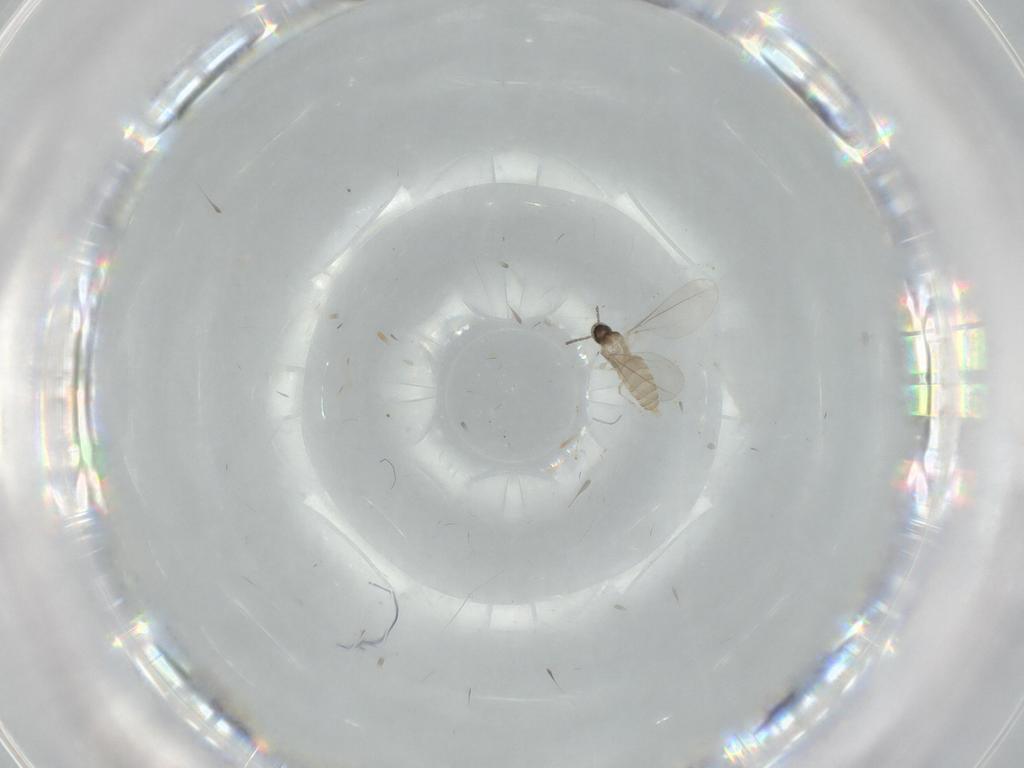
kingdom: Animalia
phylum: Arthropoda
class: Insecta
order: Diptera
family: Cecidomyiidae
